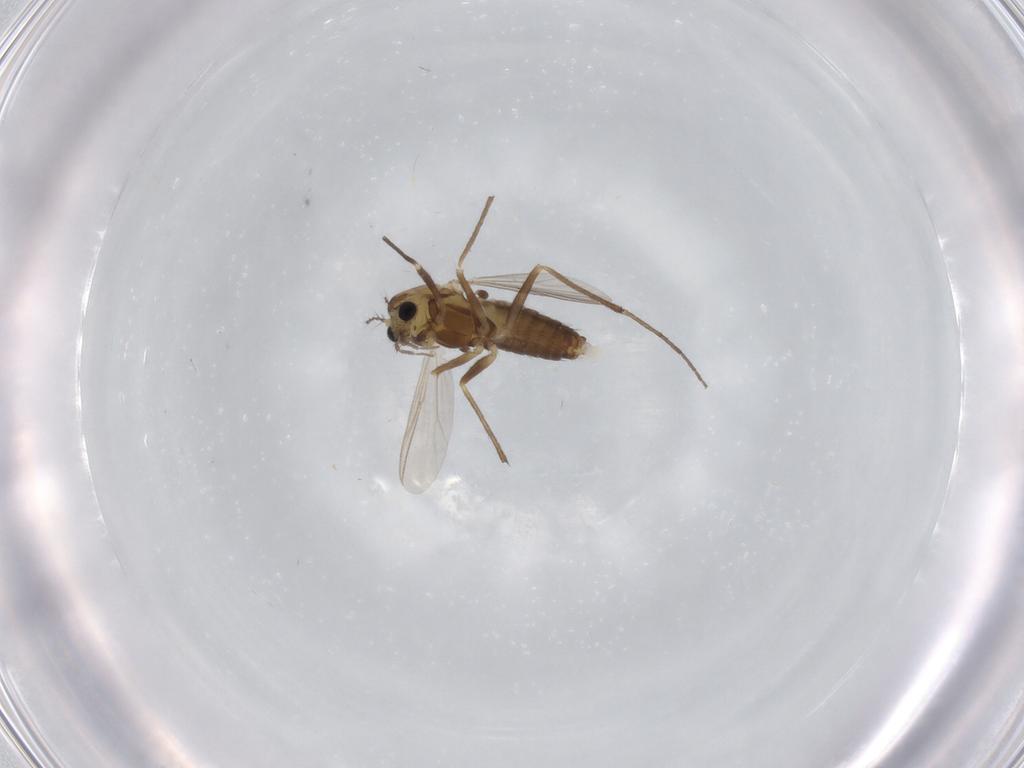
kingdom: Animalia
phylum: Arthropoda
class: Insecta
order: Diptera
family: Chironomidae
